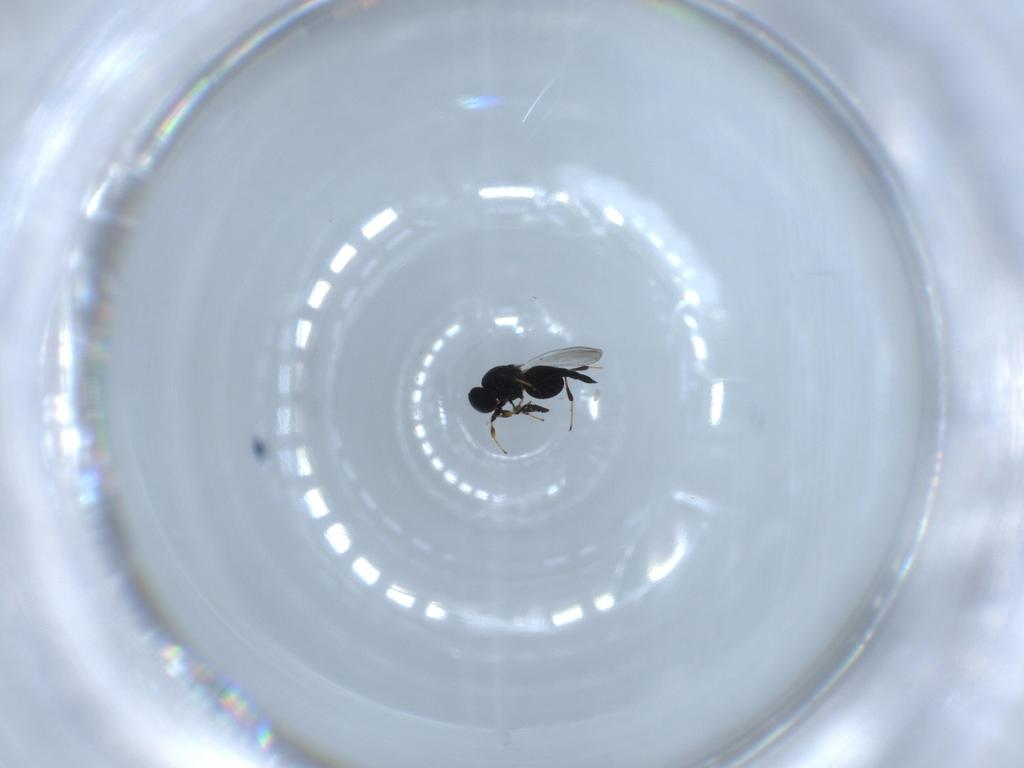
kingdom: Animalia
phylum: Arthropoda
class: Insecta
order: Hymenoptera
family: Platygastridae
